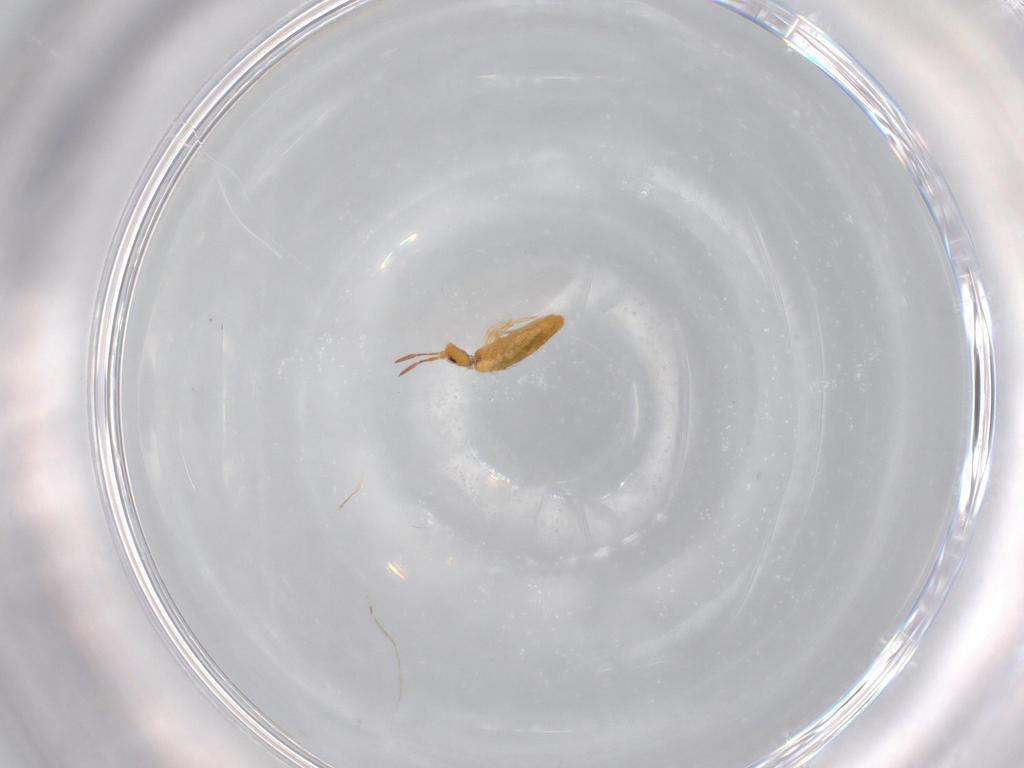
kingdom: Animalia
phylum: Arthropoda
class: Collembola
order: Entomobryomorpha
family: Entomobryidae
